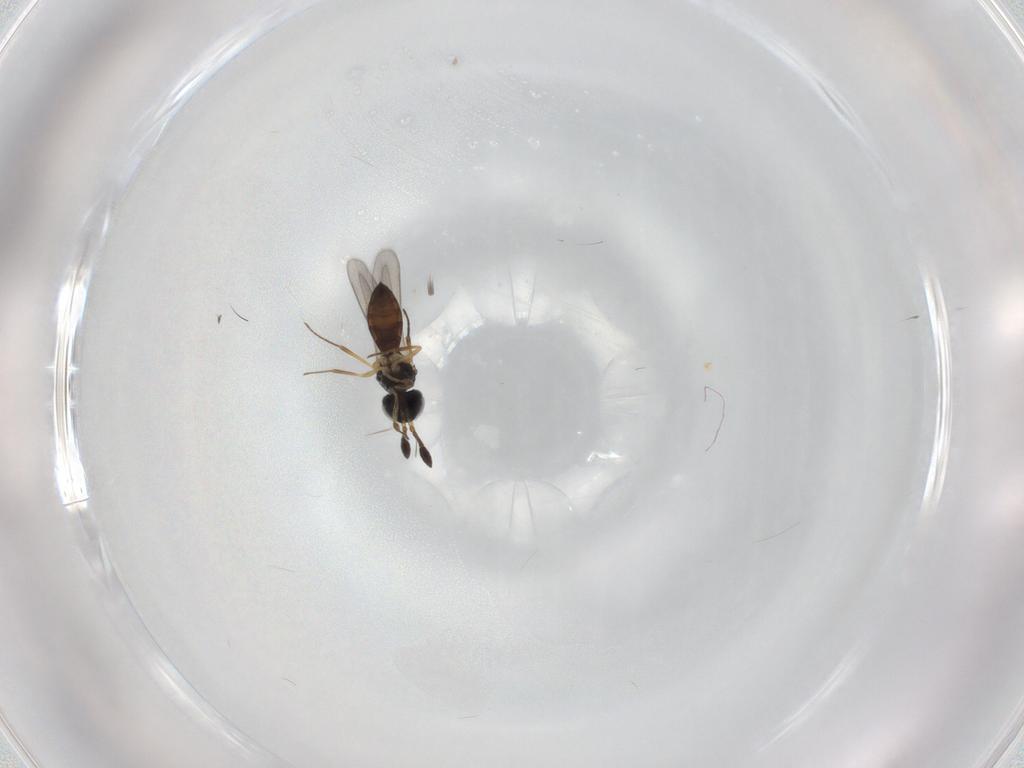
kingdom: Animalia
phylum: Arthropoda
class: Insecta
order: Hymenoptera
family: Scelionidae
